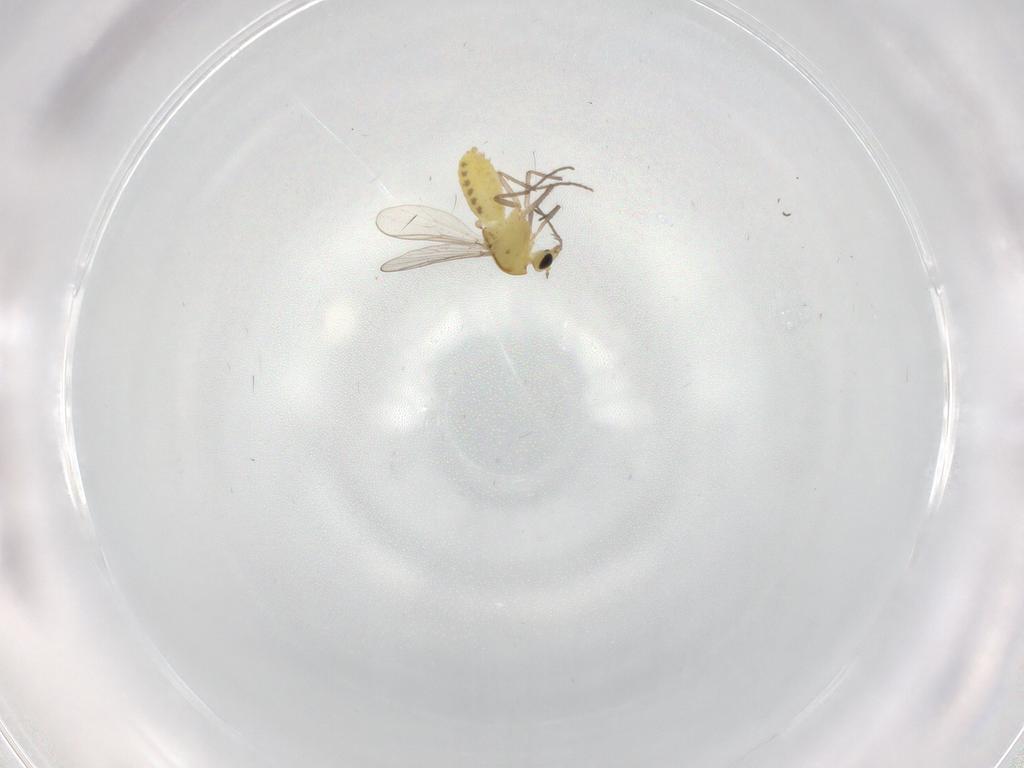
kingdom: Animalia
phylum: Arthropoda
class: Insecta
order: Diptera
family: Chironomidae
